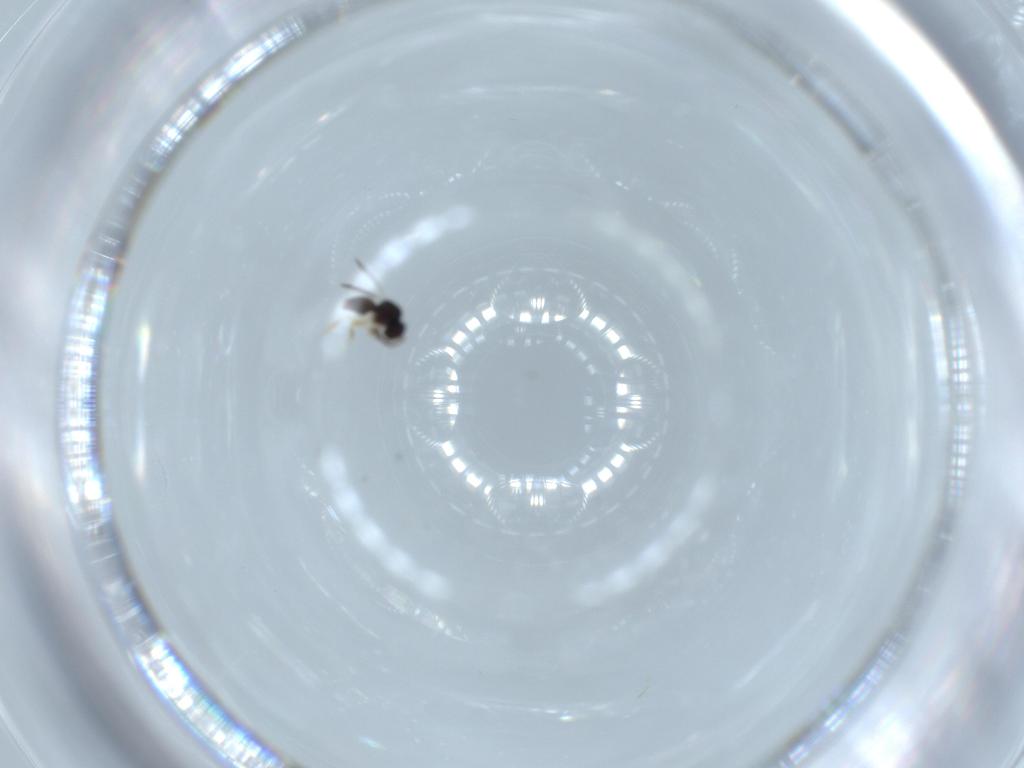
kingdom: Animalia
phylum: Arthropoda
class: Insecta
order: Hymenoptera
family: Ceraphronidae
